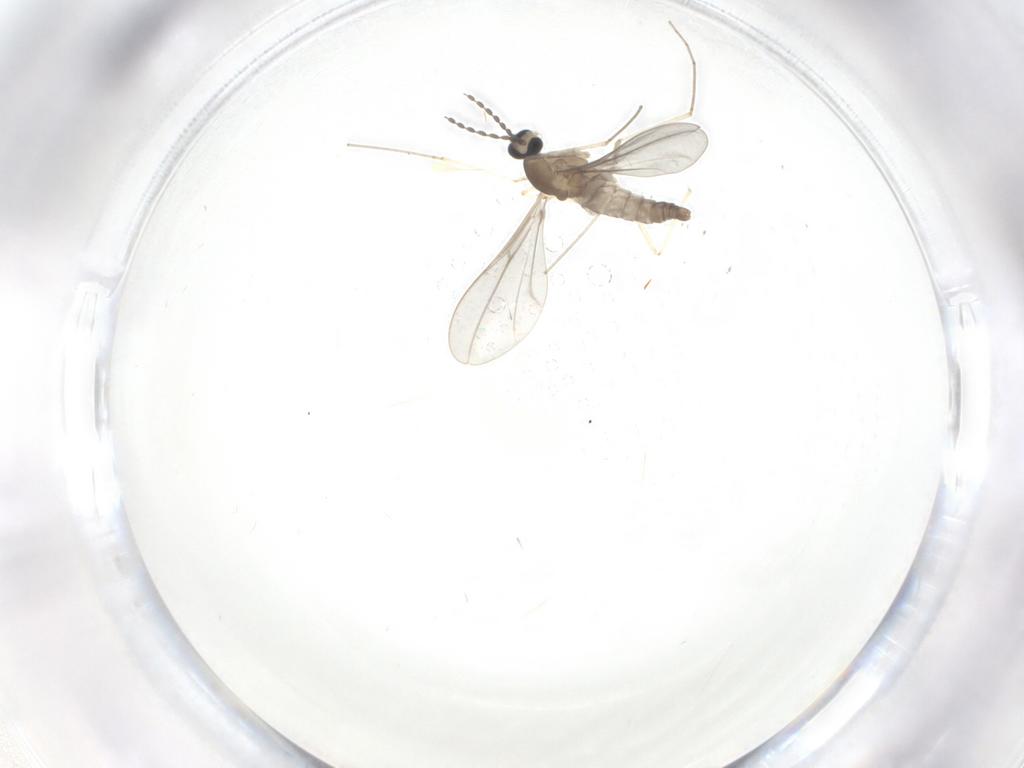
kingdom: Animalia
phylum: Arthropoda
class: Insecta
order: Diptera
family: Cecidomyiidae
